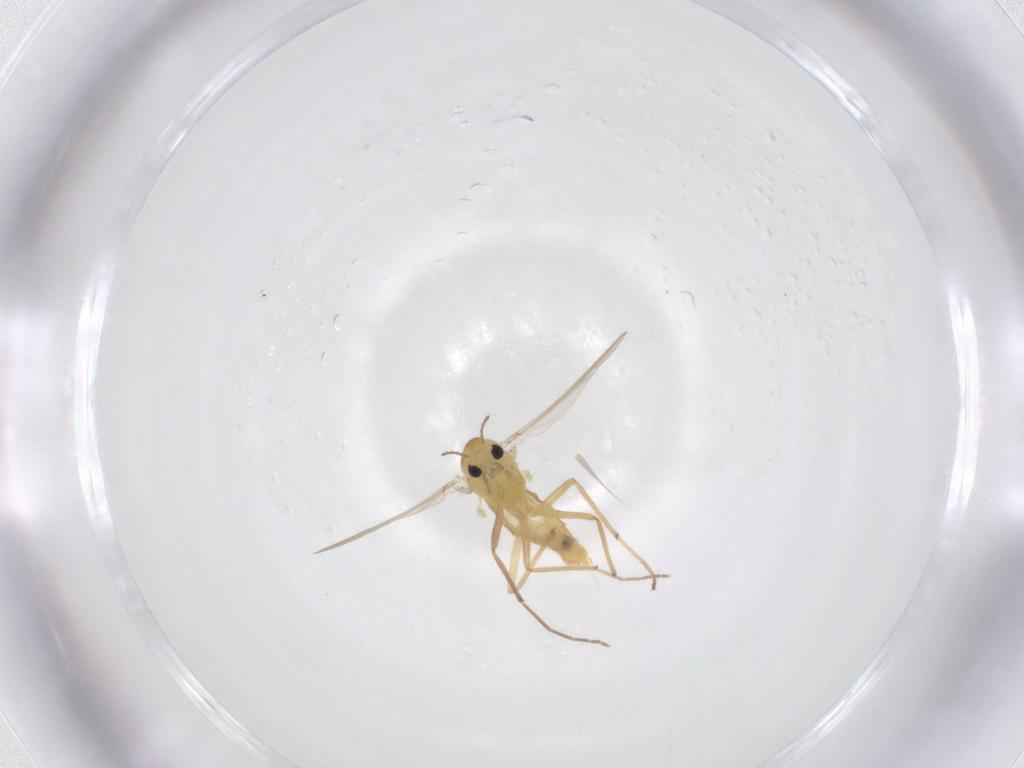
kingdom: Animalia
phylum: Arthropoda
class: Insecta
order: Diptera
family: Chironomidae
